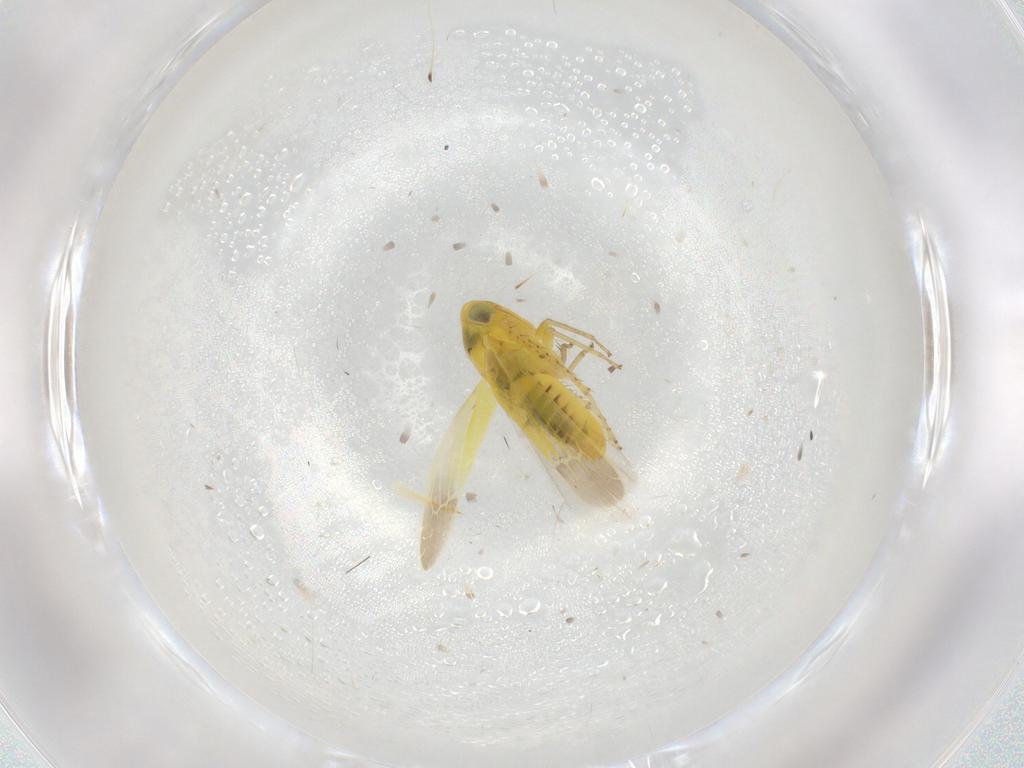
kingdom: Animalia
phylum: Arthropoda
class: Insecta
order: Hemiptera
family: Cicadellidae
